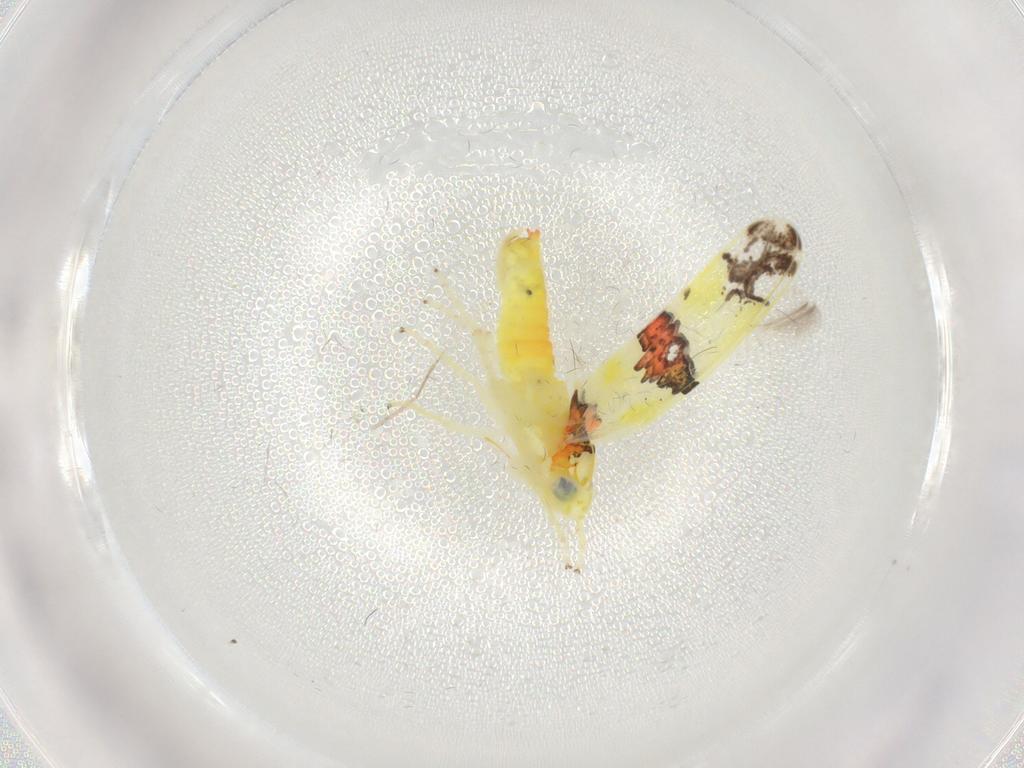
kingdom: Animalia
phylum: Arthropoda
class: Insecta
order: Hemiptera
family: Cicadellidae
